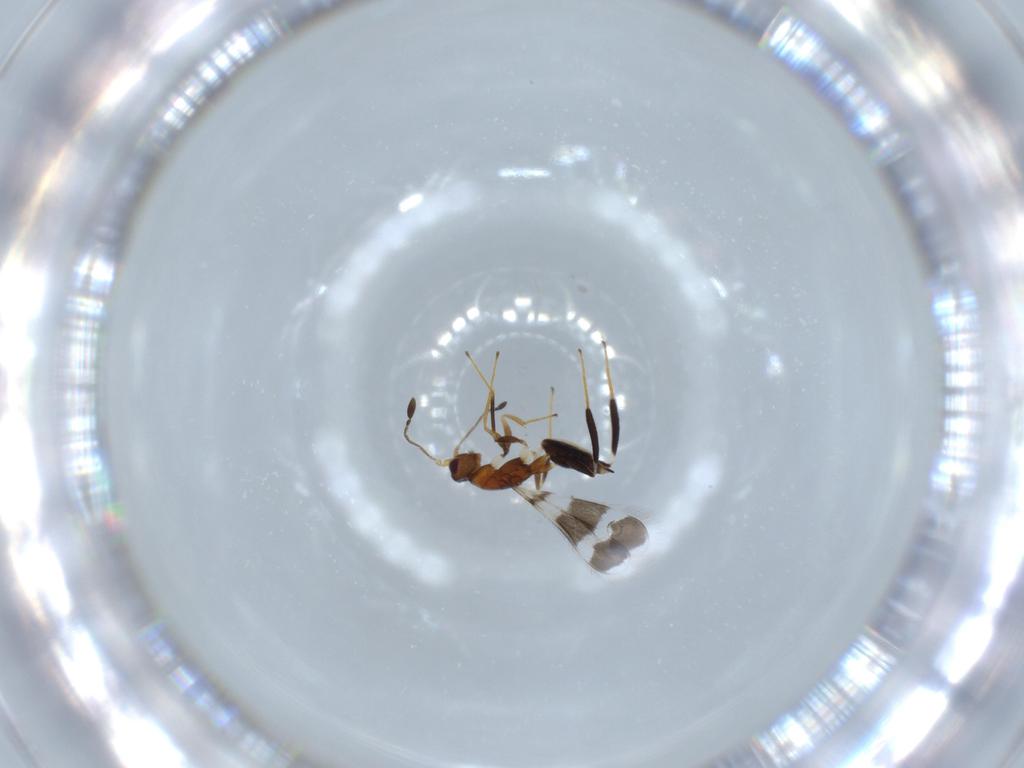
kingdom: Animalia
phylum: Arthropoda
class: Insecta
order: Hymenoptera
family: Mymaridae
